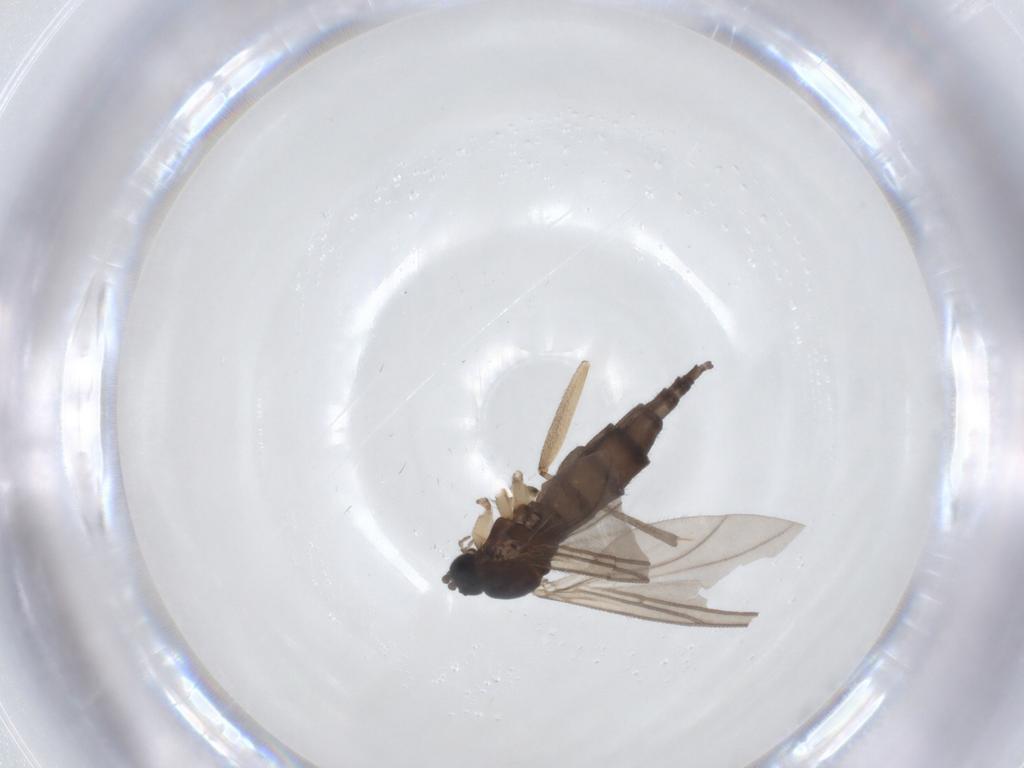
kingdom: Animalia
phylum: Arthropoda
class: Insecta
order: Diptera
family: Sciaridae
